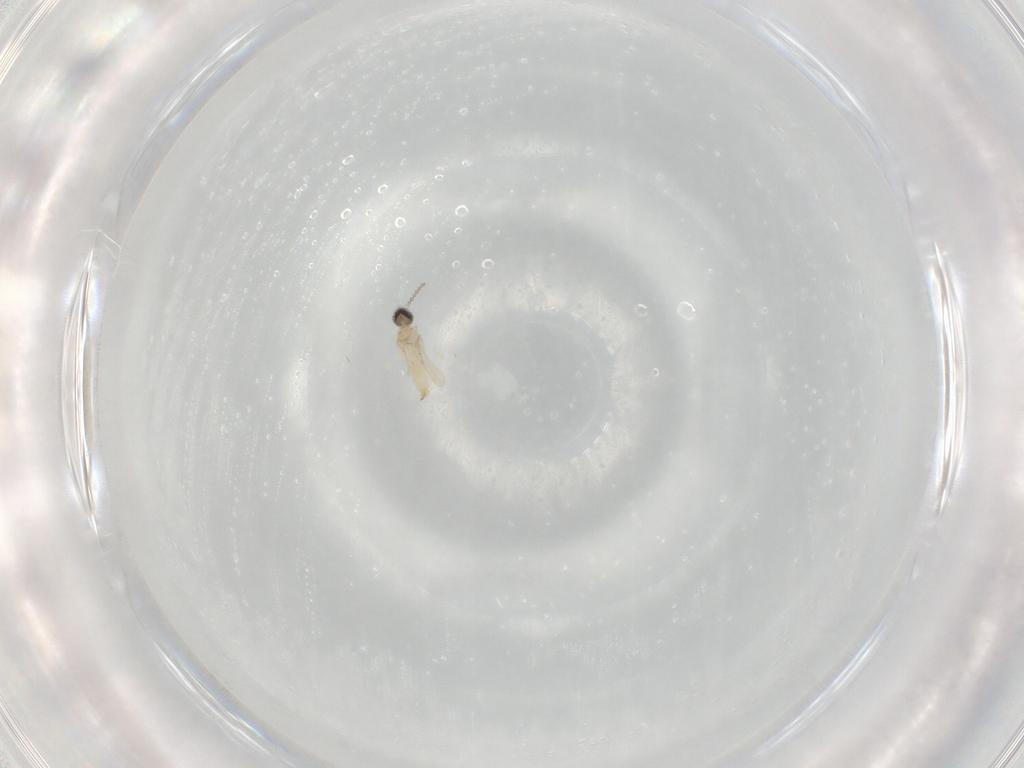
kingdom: Animalia
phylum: Arthropoda
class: Insecta
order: Diptera
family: Cecidomyiidae
